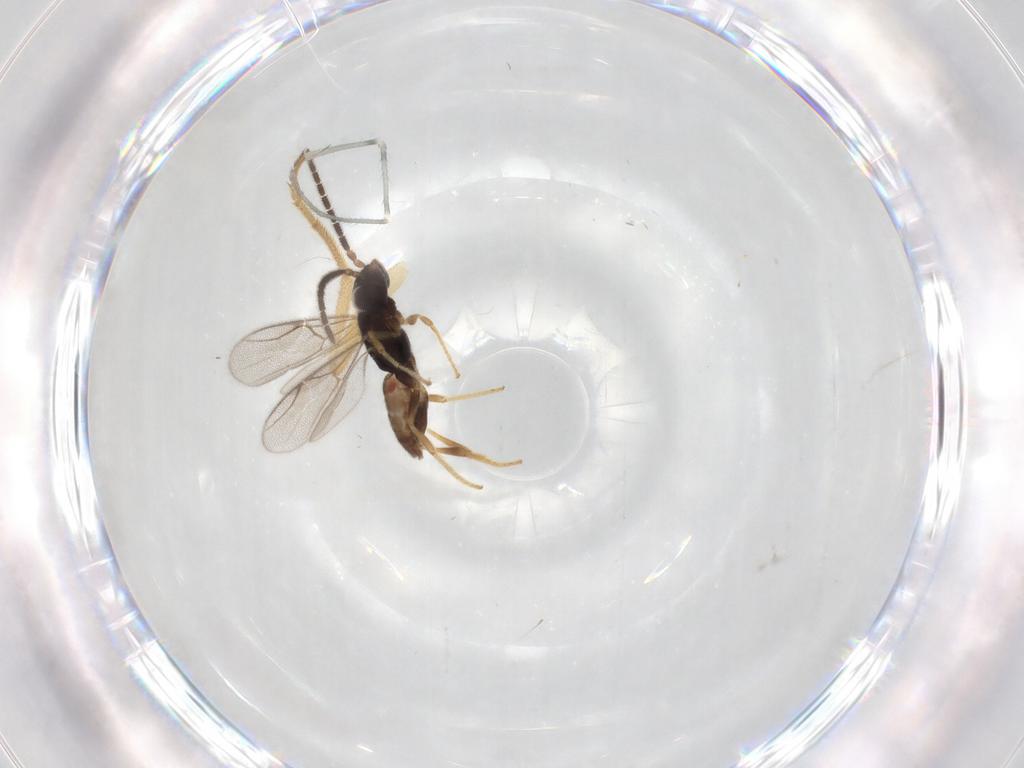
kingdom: Animalia
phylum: Arthropoda
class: Insecta
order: Hymenoptera
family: Dryinidae
